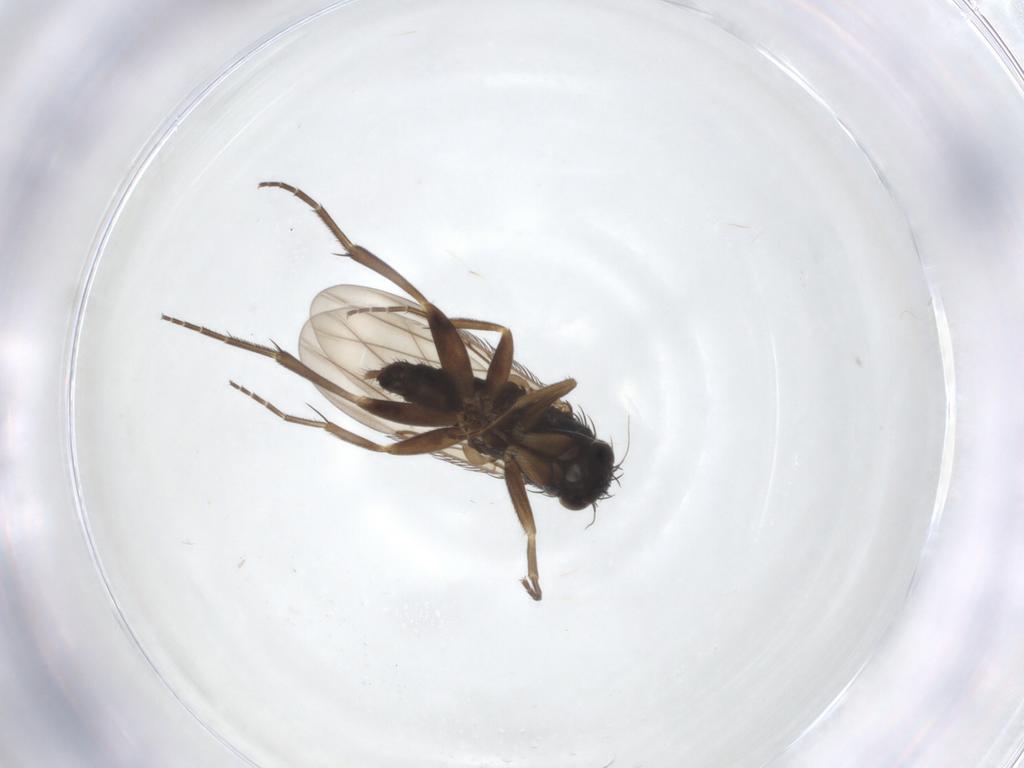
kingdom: Animalia
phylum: Arthropoda
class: Insecta
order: Diptera
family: Phoridae
